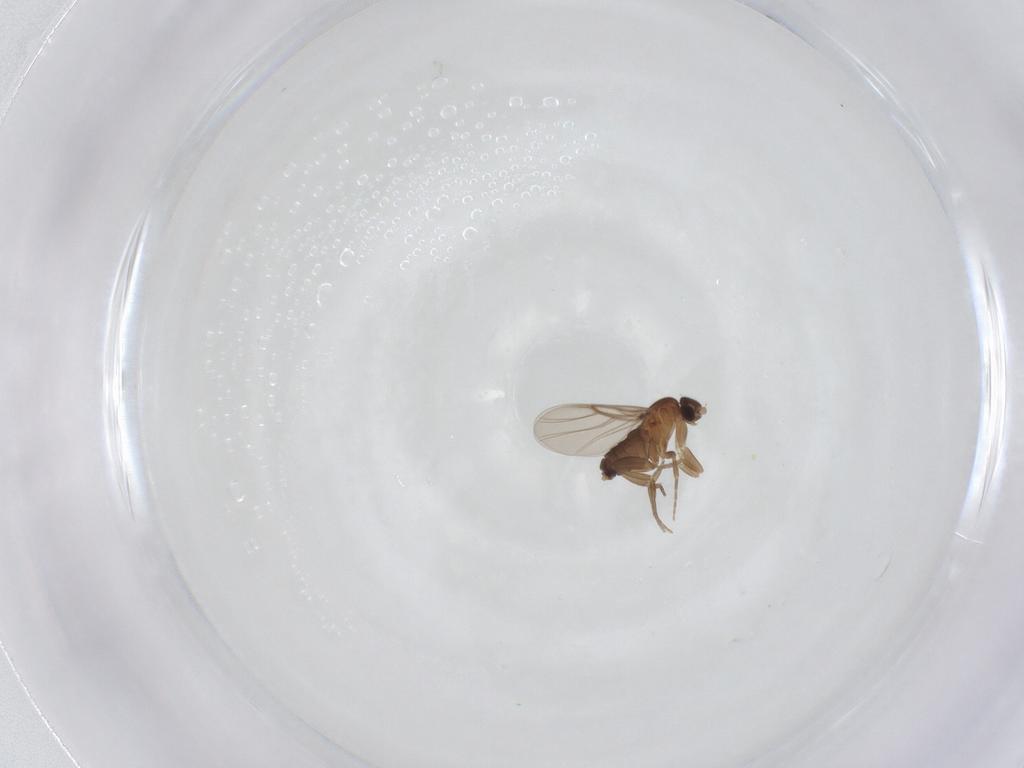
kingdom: Animalia
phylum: Arthropoda
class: Insecta
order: Diptera
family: Phoridae
